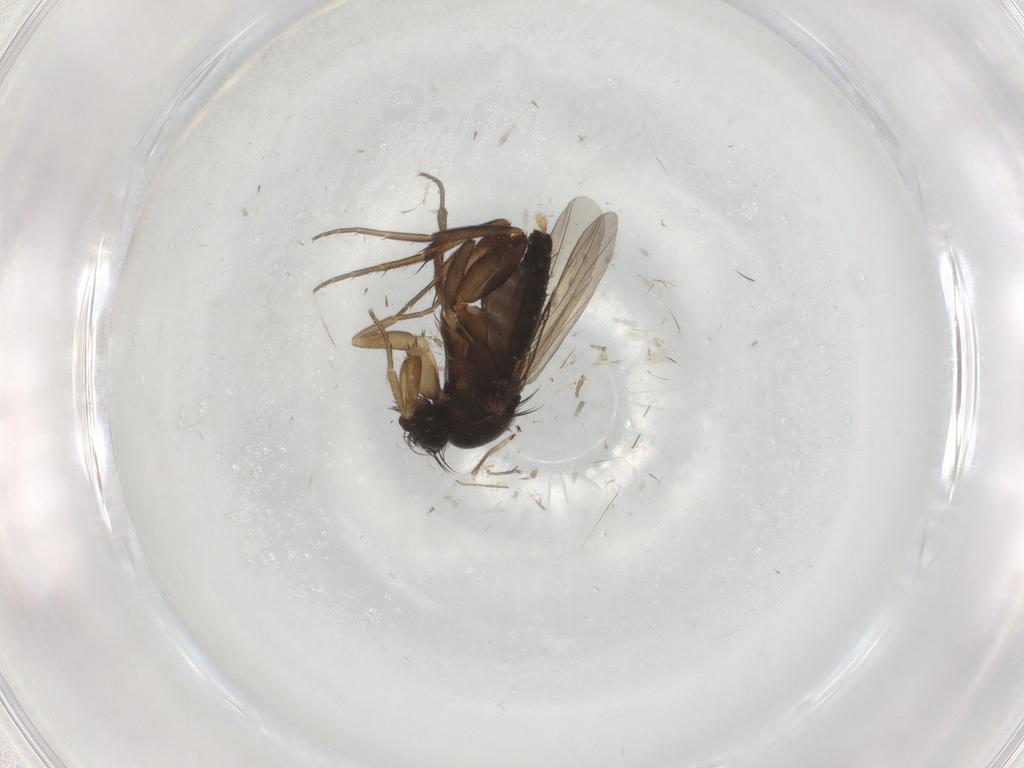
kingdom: Animalia
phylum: Arthropoda
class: Insecta
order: Diptera
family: Phoridae
